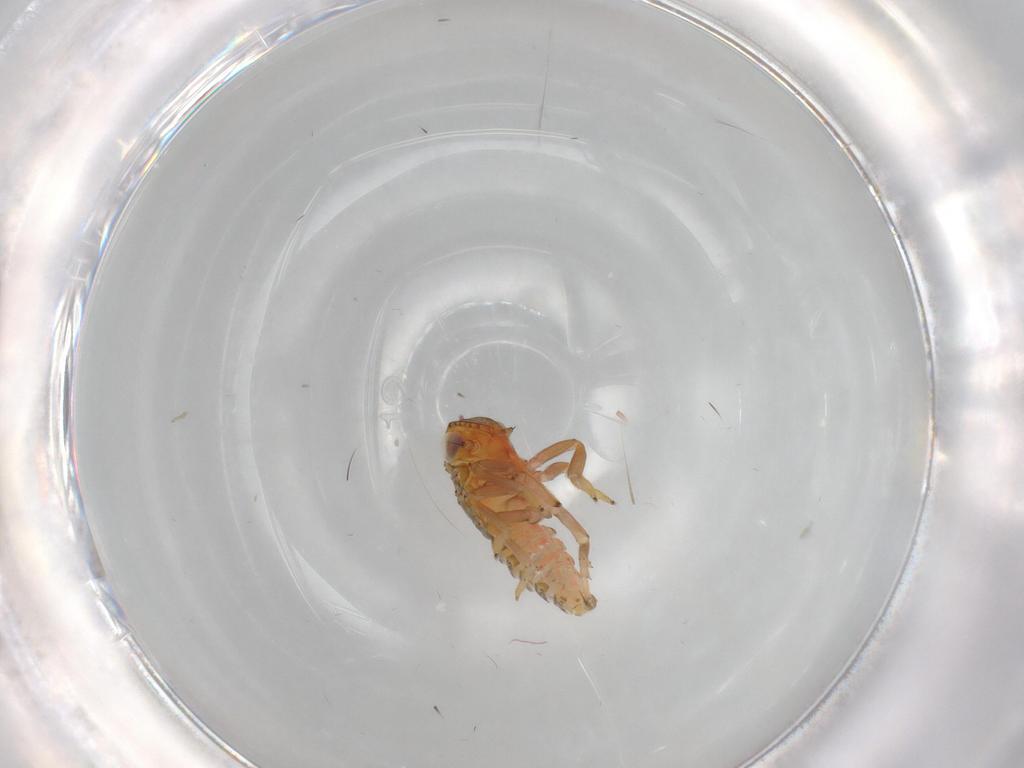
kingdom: Animalia
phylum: Arthropoda
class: Insecta
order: Hemiptera
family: Issidae
